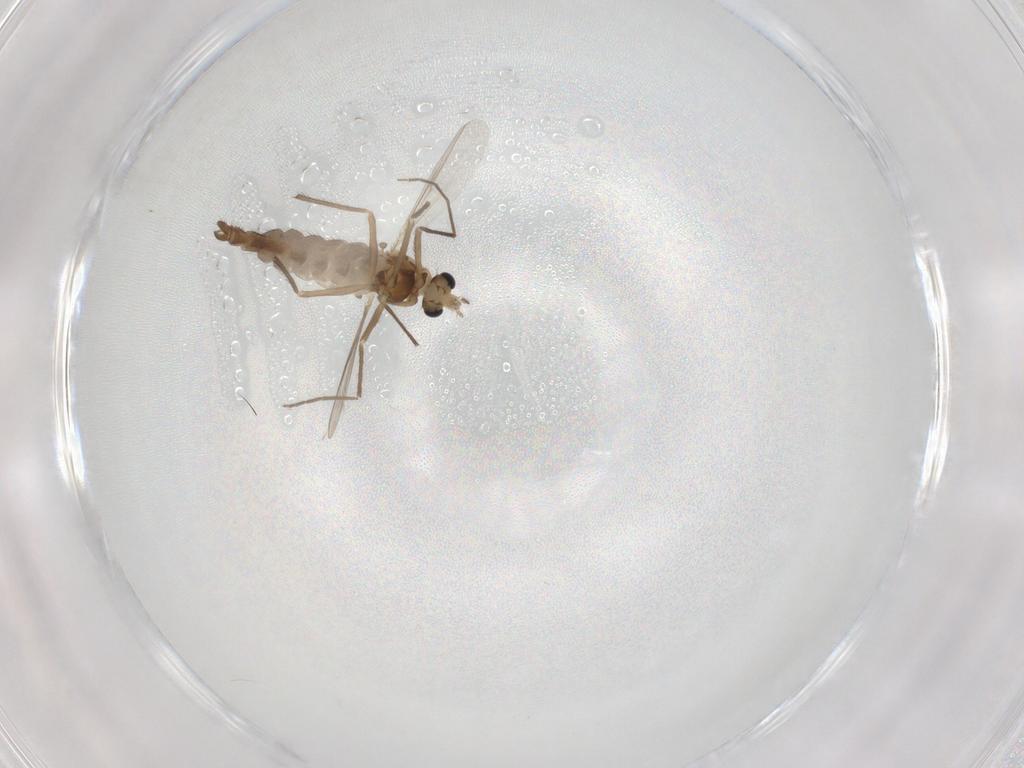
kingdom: Animalia
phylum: Arthropoda
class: Insecta
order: Diptera
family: Chironomidae
